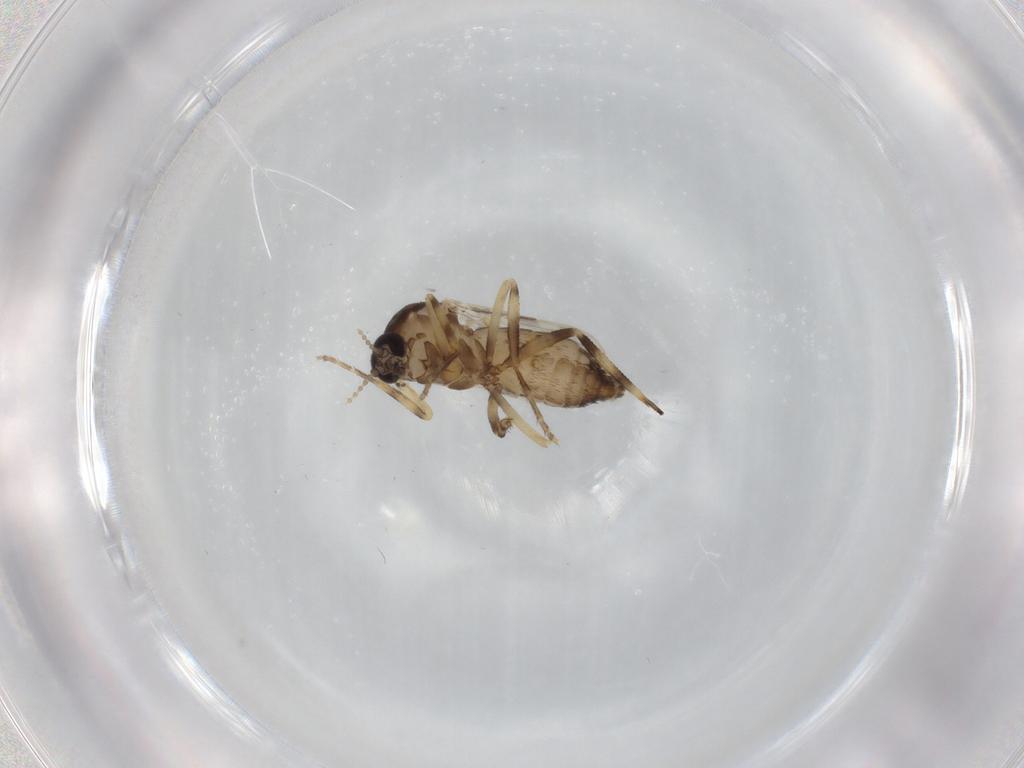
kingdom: Animalia
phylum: Arthropoda
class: Insecta
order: Diptera
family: Ceratopogonidae
